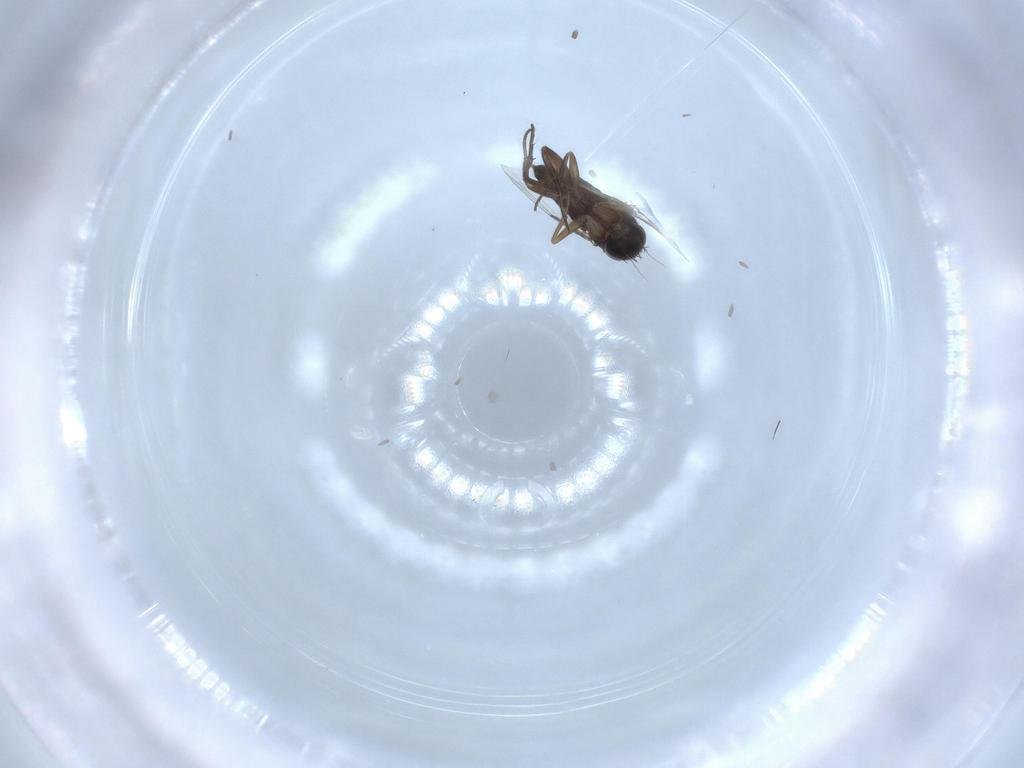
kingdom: Animalia
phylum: Arthropoda
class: Insecta
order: Diptera
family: Phoridae
